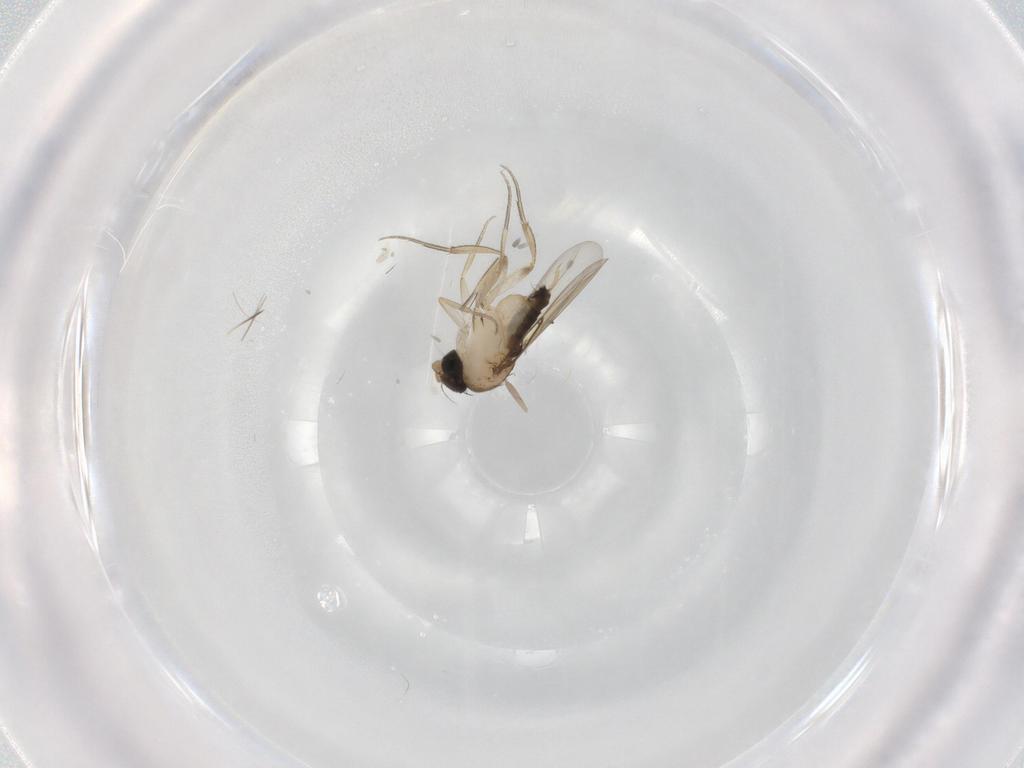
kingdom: Animalia
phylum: Arthropoda
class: Insecta
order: Diptera
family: Phoridae
